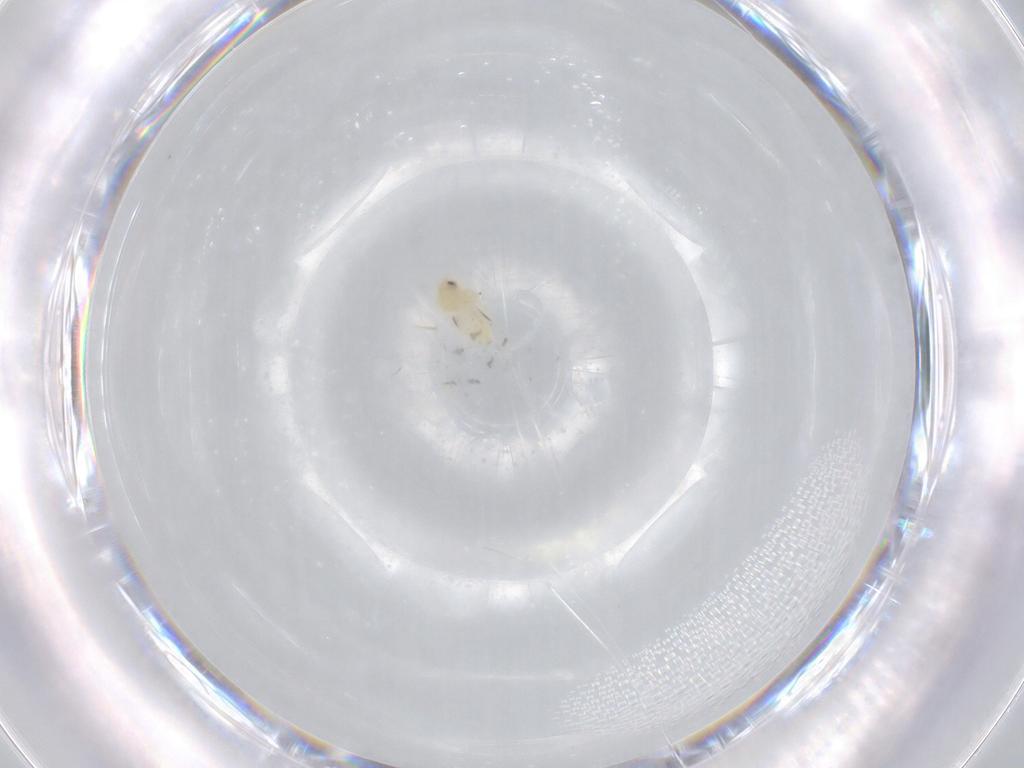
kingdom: Animalia
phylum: Arthropoda
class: Insecta
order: Hemiptera
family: Aleyrodidae
